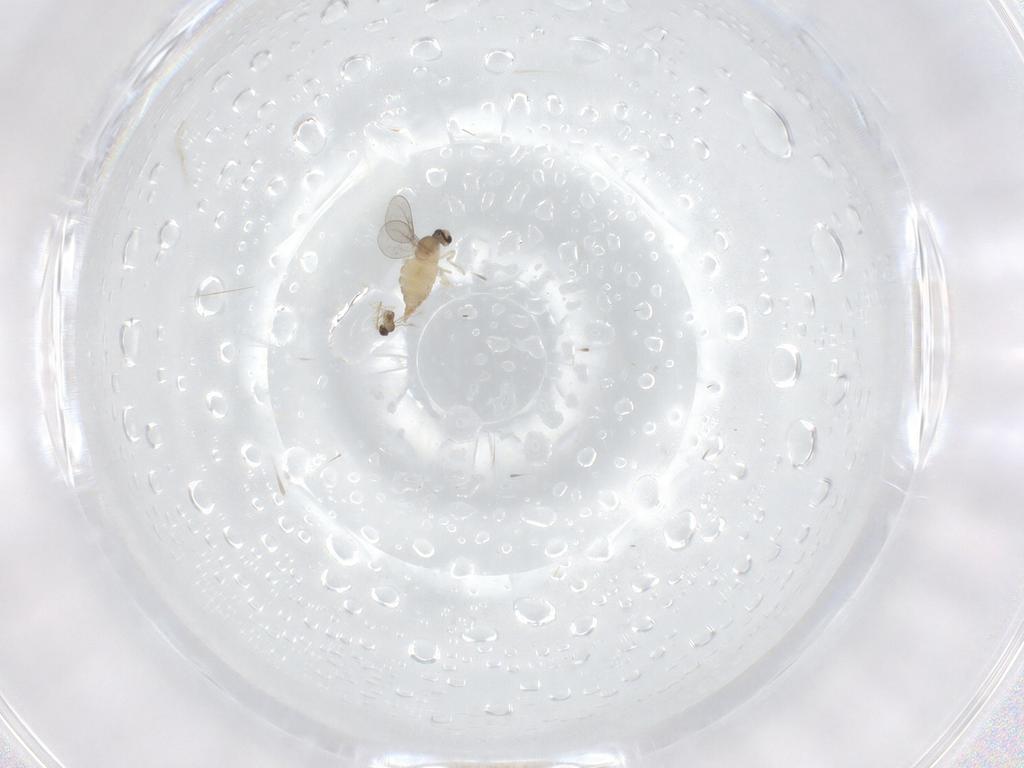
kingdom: Animalia
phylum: Arthropoda
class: Insecta
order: Diptera
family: Cecidomyiidae
